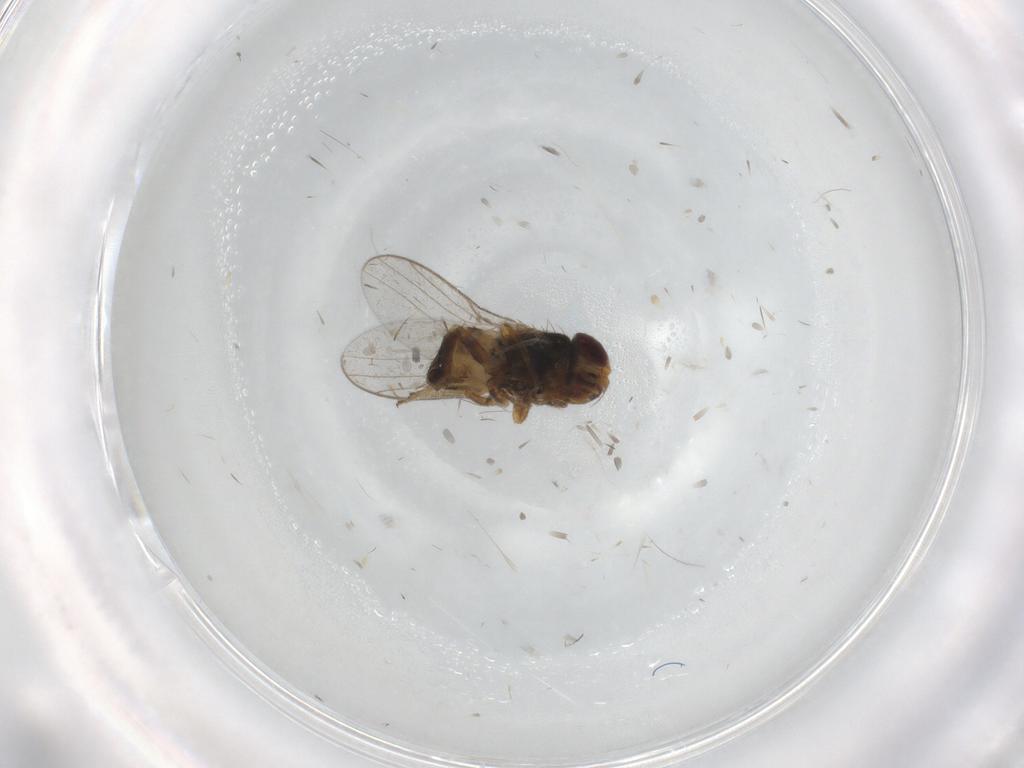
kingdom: Animalia
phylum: Arthropoda
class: Insecta
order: Diptera
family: Chloropidae
